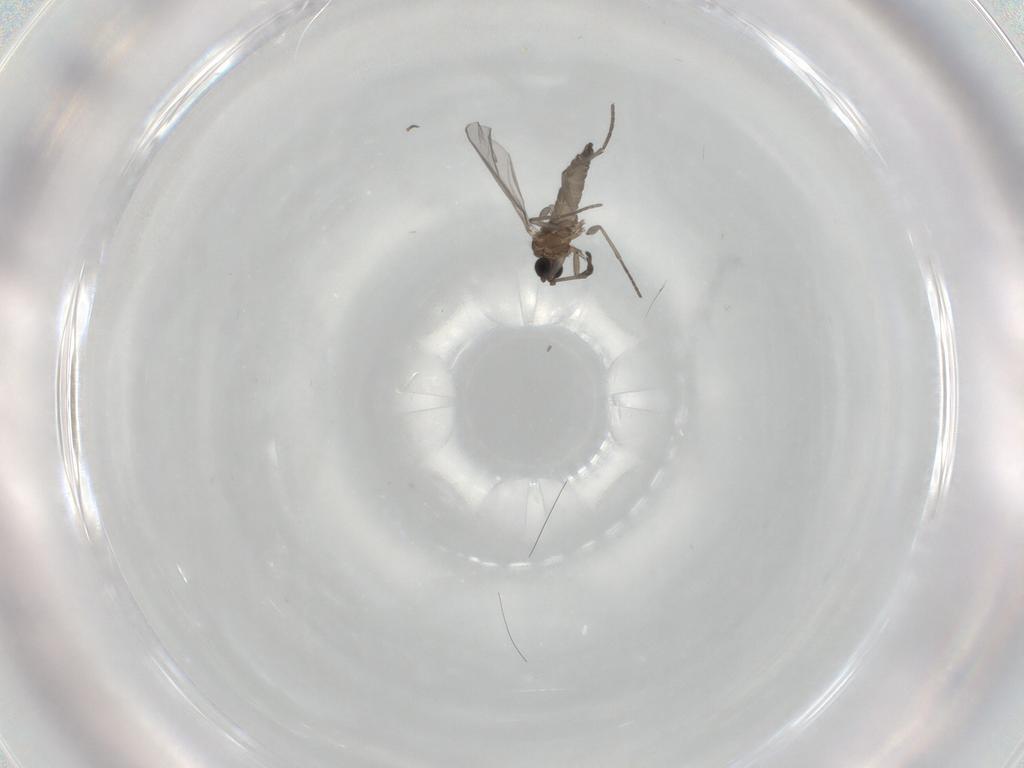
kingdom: Animalia
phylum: Arthropoda
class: Insecta
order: Diptera
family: Sciaridae
